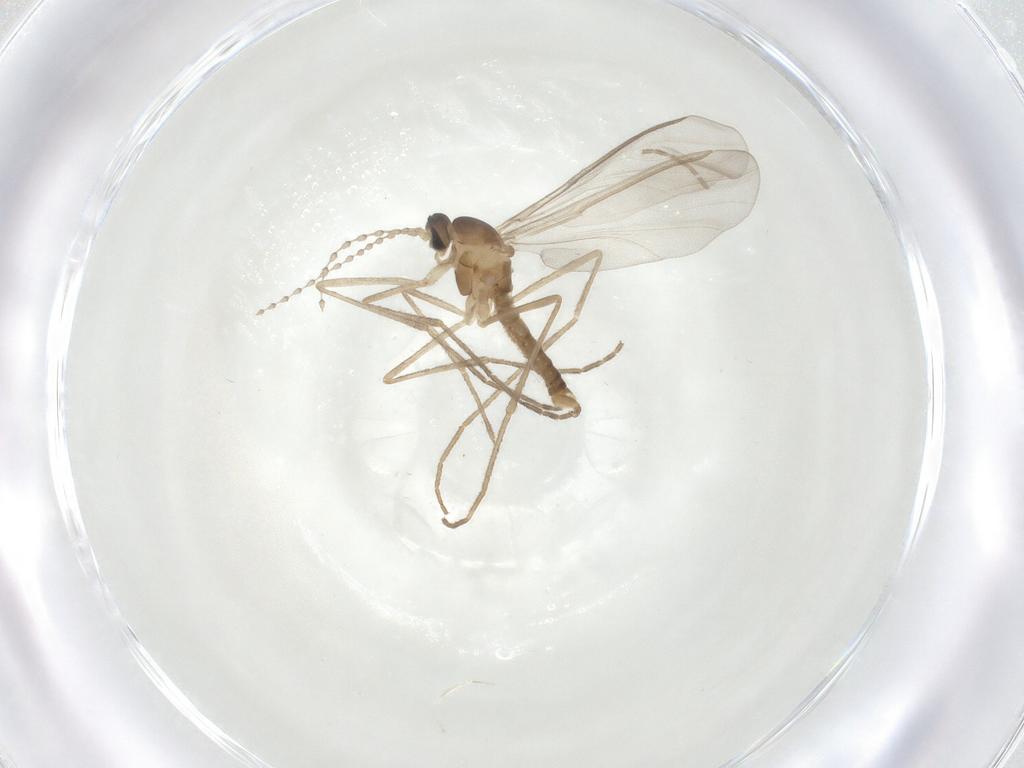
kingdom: Animalia
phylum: Arthropoda
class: Insecta
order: Diptera
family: Cecidomyiidae
